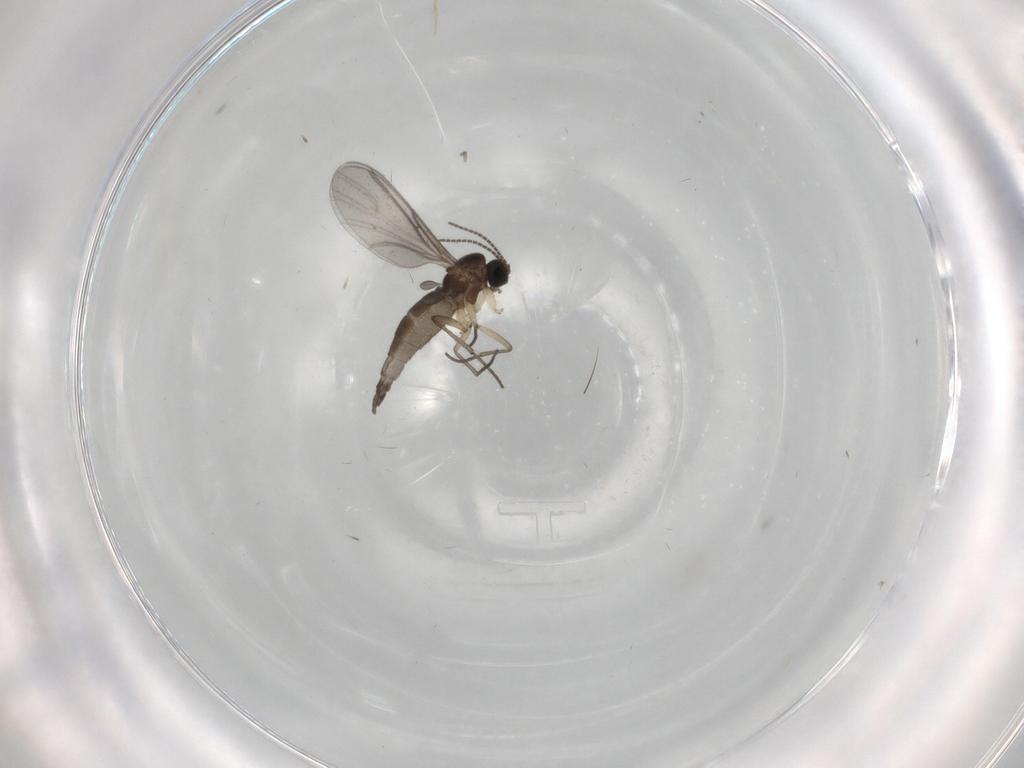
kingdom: Animalia
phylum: Arthropoda
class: Insecta
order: Diptera
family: Sciaridae
